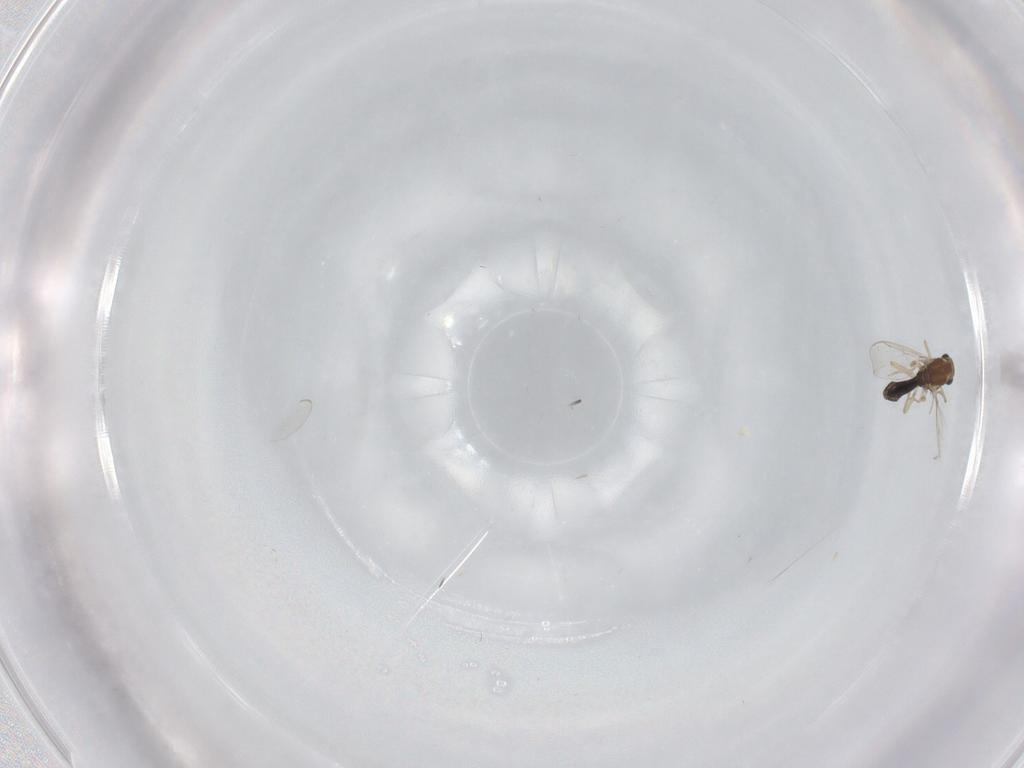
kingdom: Animalia
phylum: Arthropoda
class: Insecta
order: Diptera
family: Chironomidae
